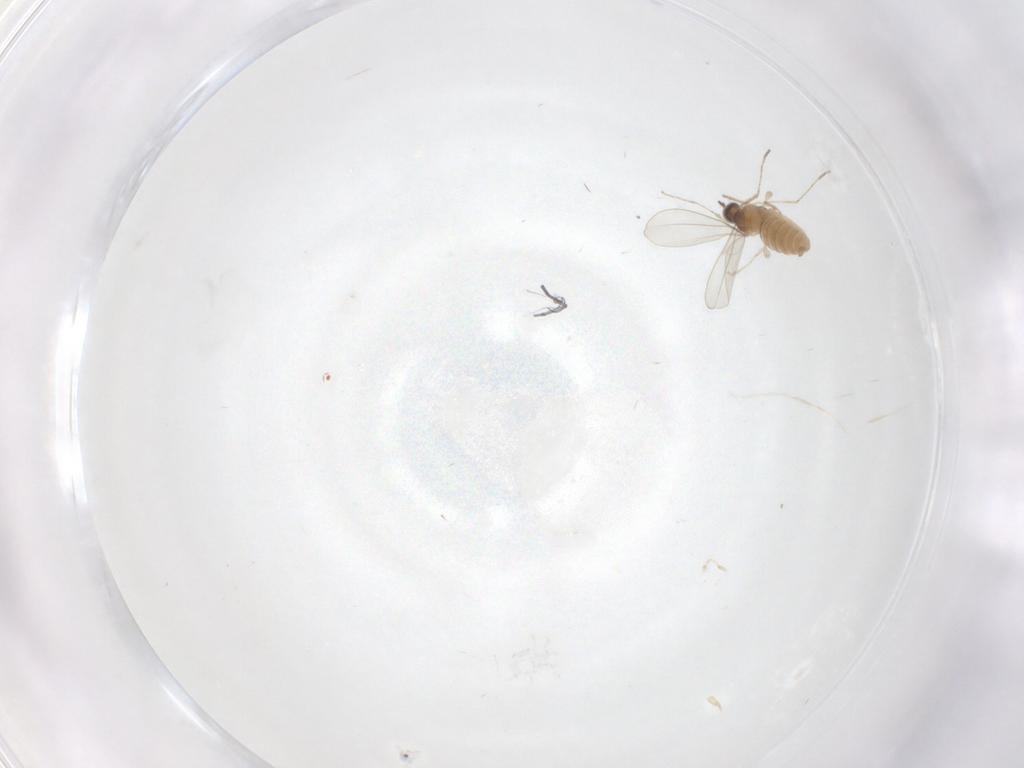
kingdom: Animalia
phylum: Arthropoda
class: Insecta
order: Diptera
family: Cecidomyiidae
